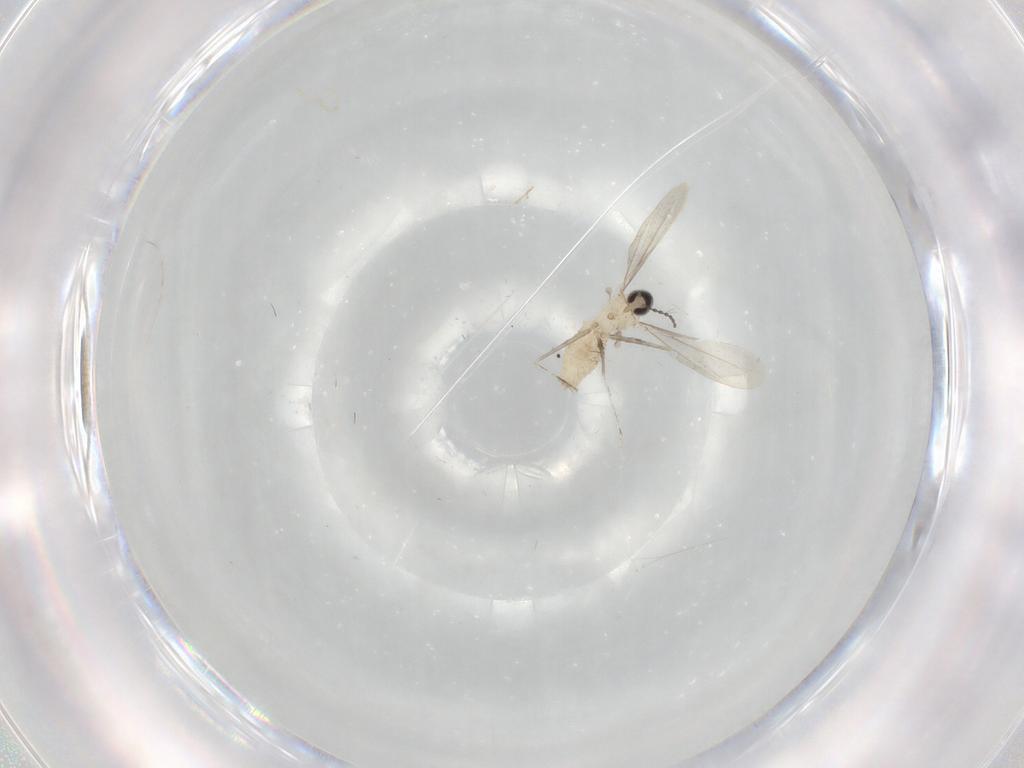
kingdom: Animalia
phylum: Arthropoda
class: Insecta
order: Diptera
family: Cecidomyiidae
